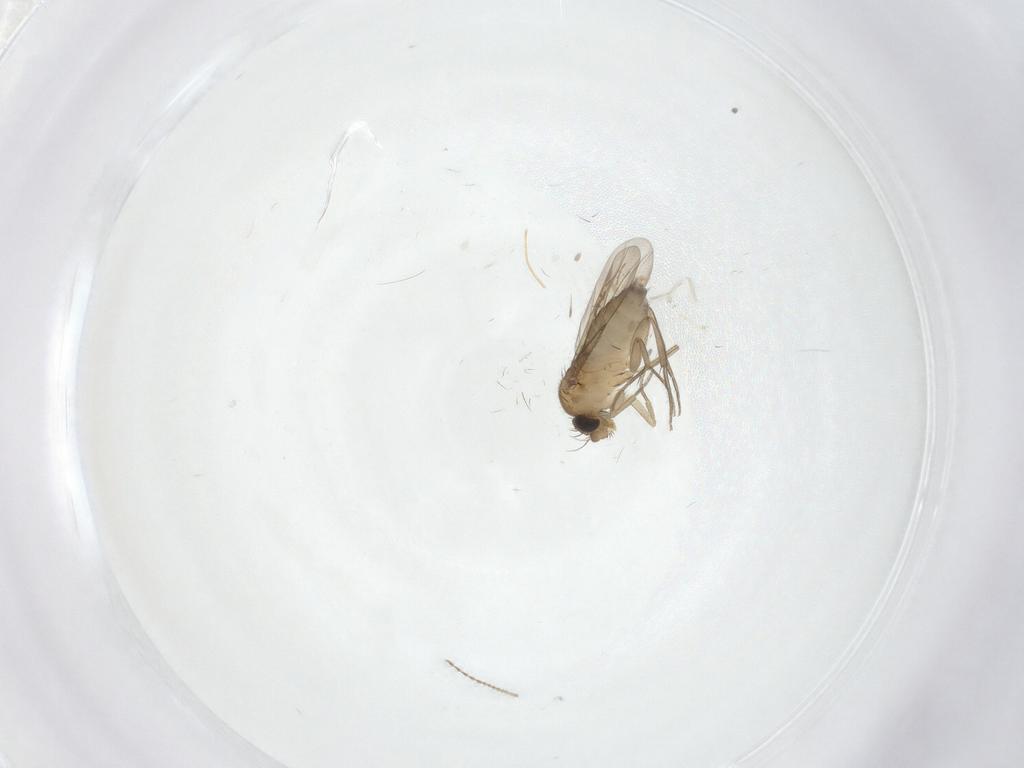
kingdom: Animalia
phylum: Arthropoda
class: Insecta
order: Diptera
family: Phoridae
